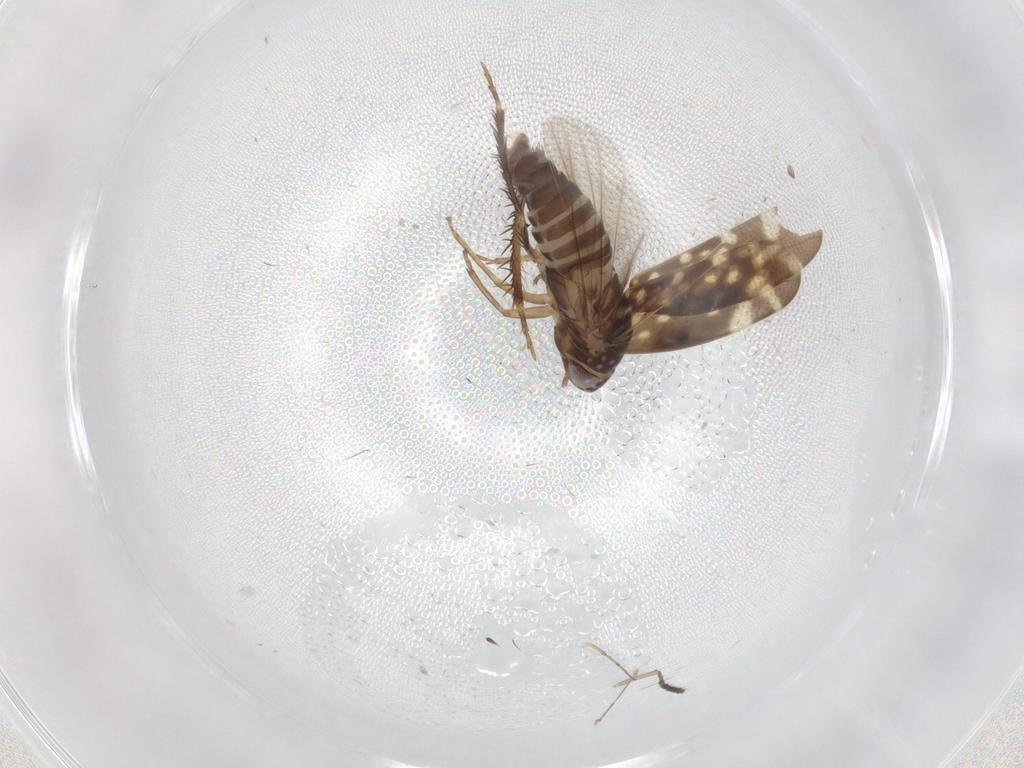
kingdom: Animalia
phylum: Arthropoda
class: Insecta
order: Hemiptera
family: Cicadellidae
